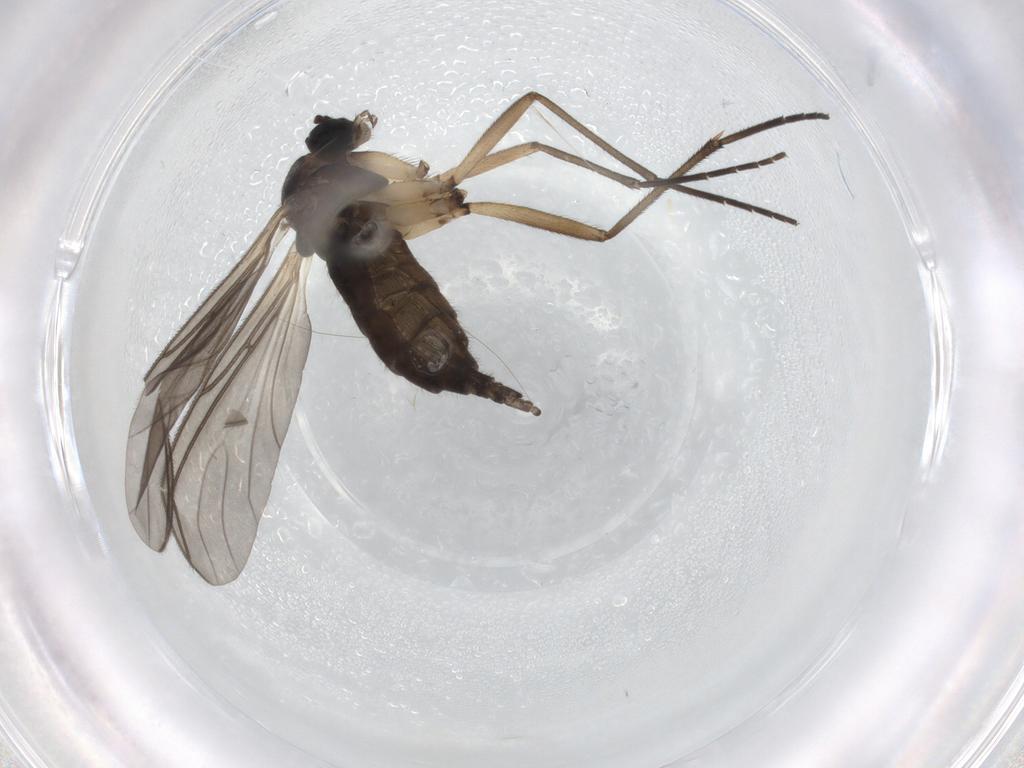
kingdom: Animalia
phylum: Arthropoda
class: Insecta
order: Diptera
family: Sciaridae
